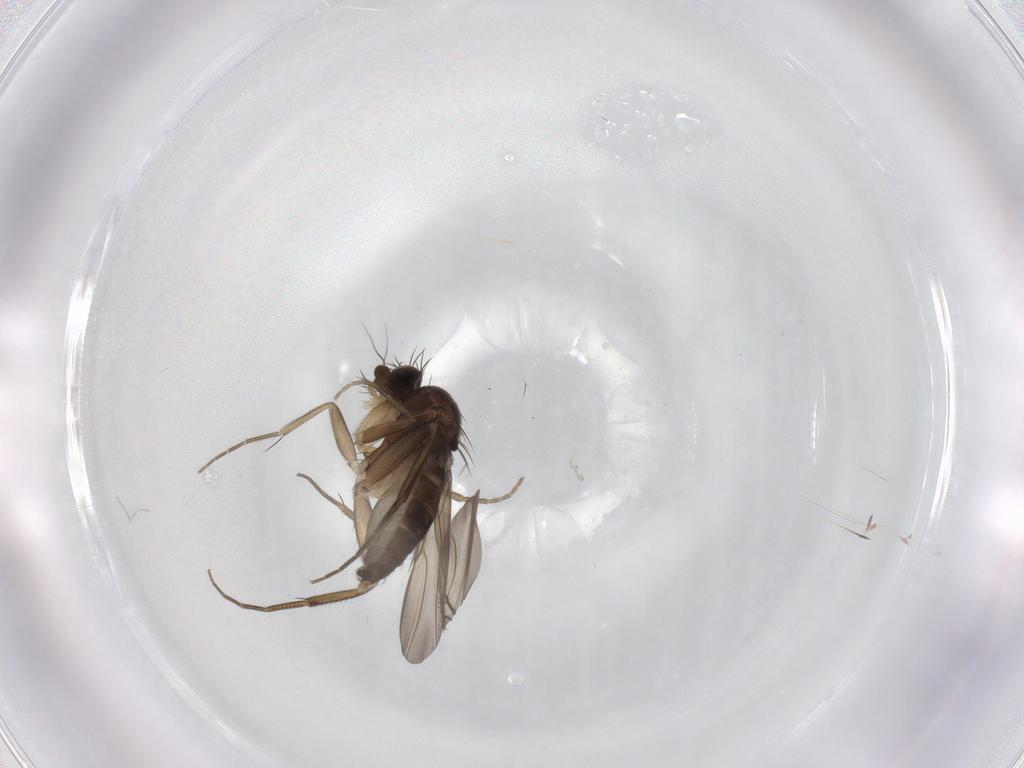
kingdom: Animalia
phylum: Arthropoda
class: Insecta
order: Diptera
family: Phoridae
